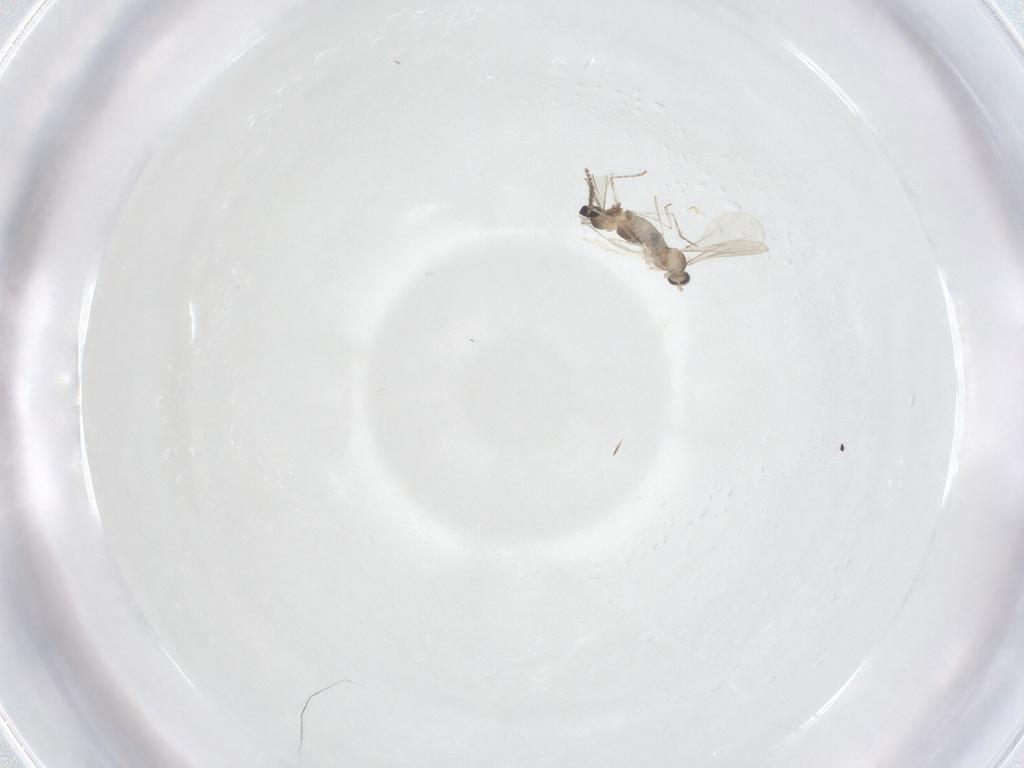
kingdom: Animalia
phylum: Arthropoda
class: Insecta
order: Diptera
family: Cecidomyiidae
